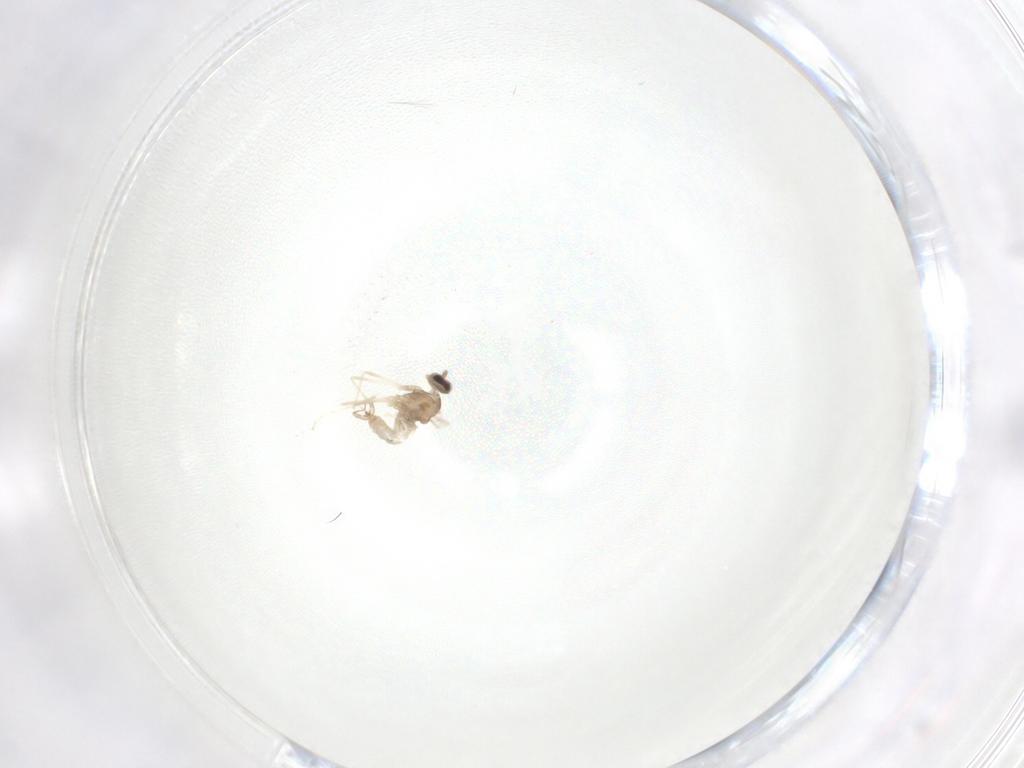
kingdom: Animalia
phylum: Arthropoda
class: Insecta
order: Diptera
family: Cecidomyiidae
